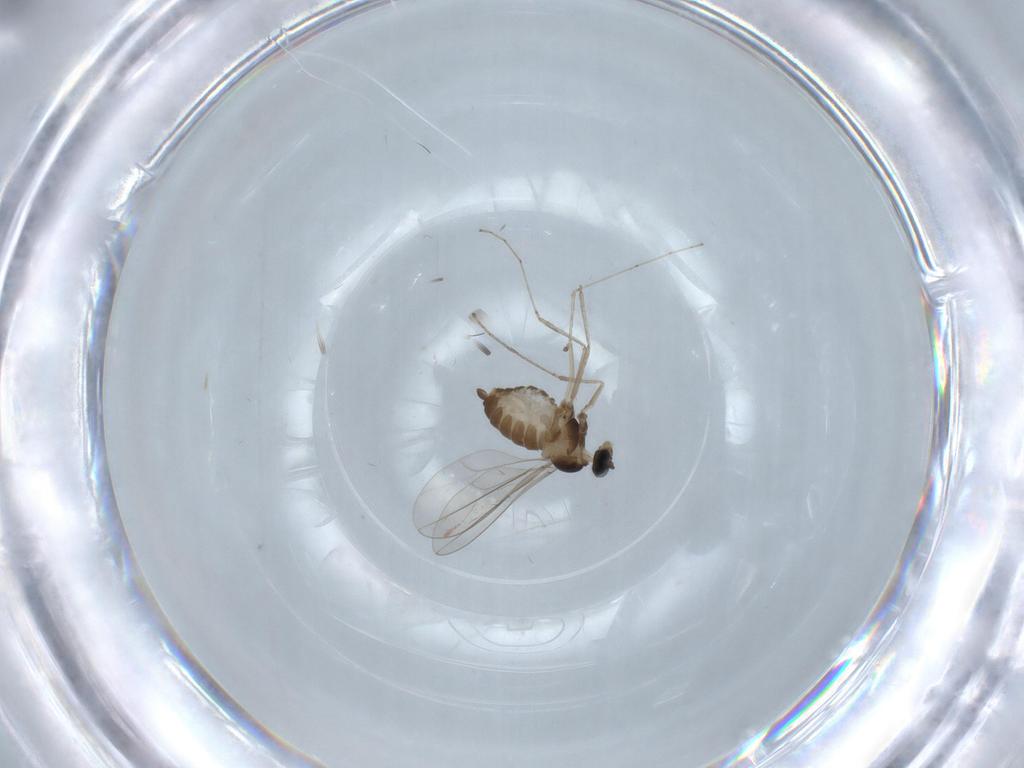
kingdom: Animalia
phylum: Arthropoda
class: Insecta
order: Diptera
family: Cecidomyiidae
